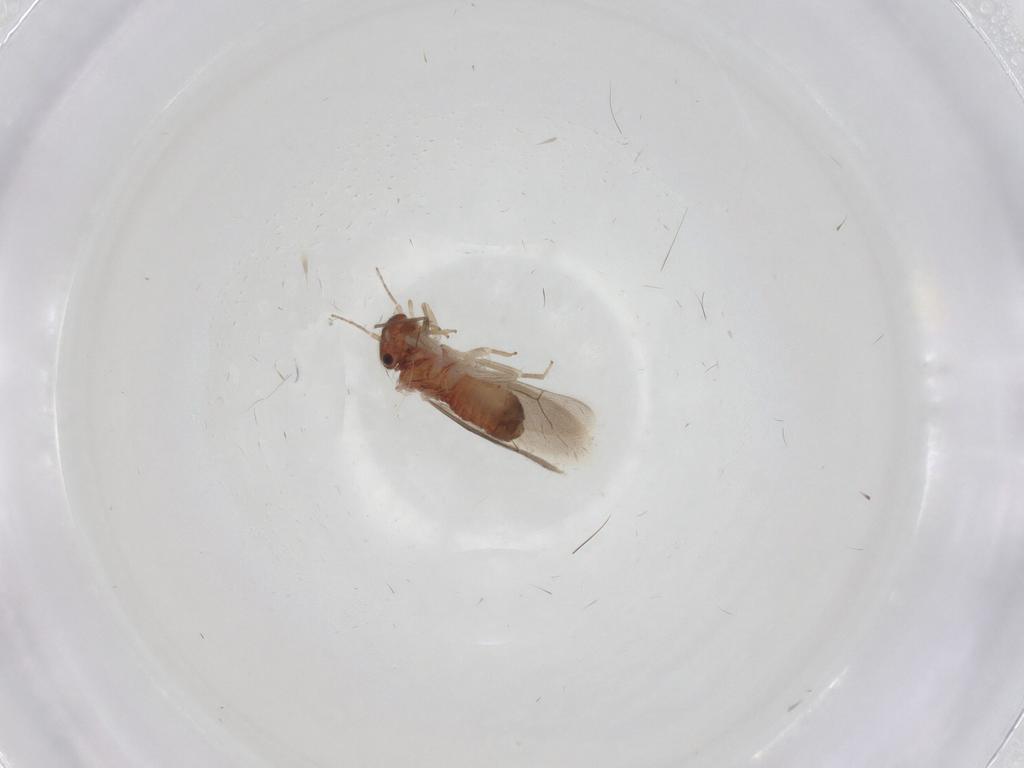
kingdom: Animalia
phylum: Arthropoda
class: Insecta
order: Psocodea
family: Archipsocidae
